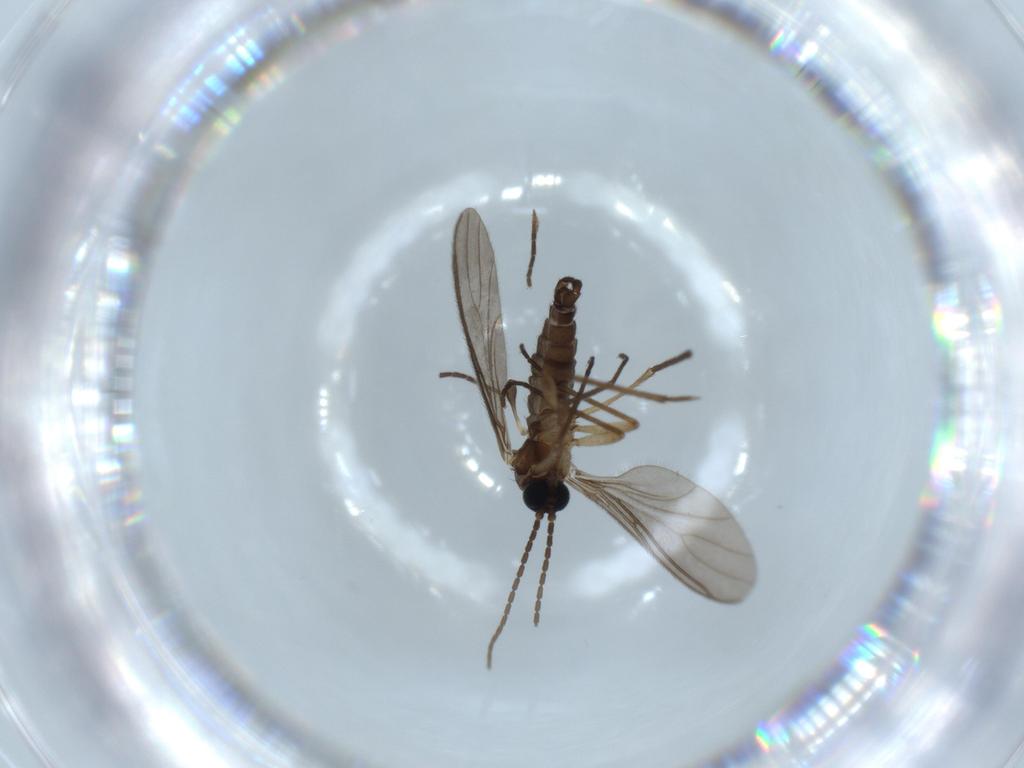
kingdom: Animalia
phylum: Arthropoda
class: Insecta
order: Diptera
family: Sciaridae
